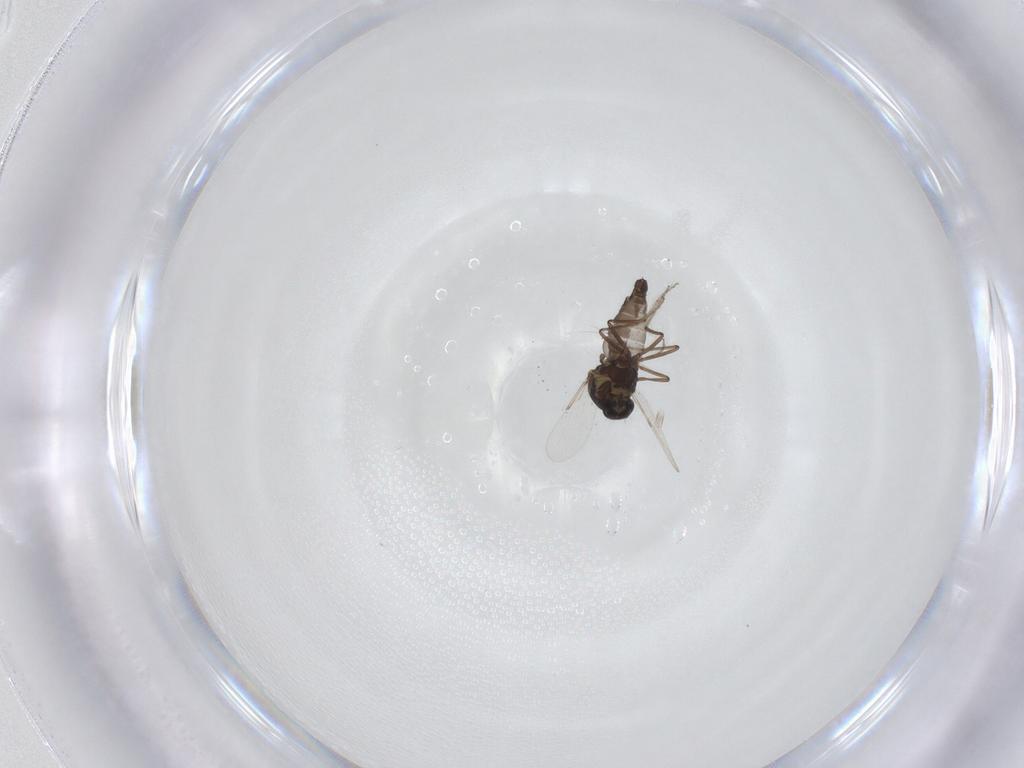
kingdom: Animalia
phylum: Arthropoda
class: Insecta
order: Diptera
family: Ceratopogonidae
